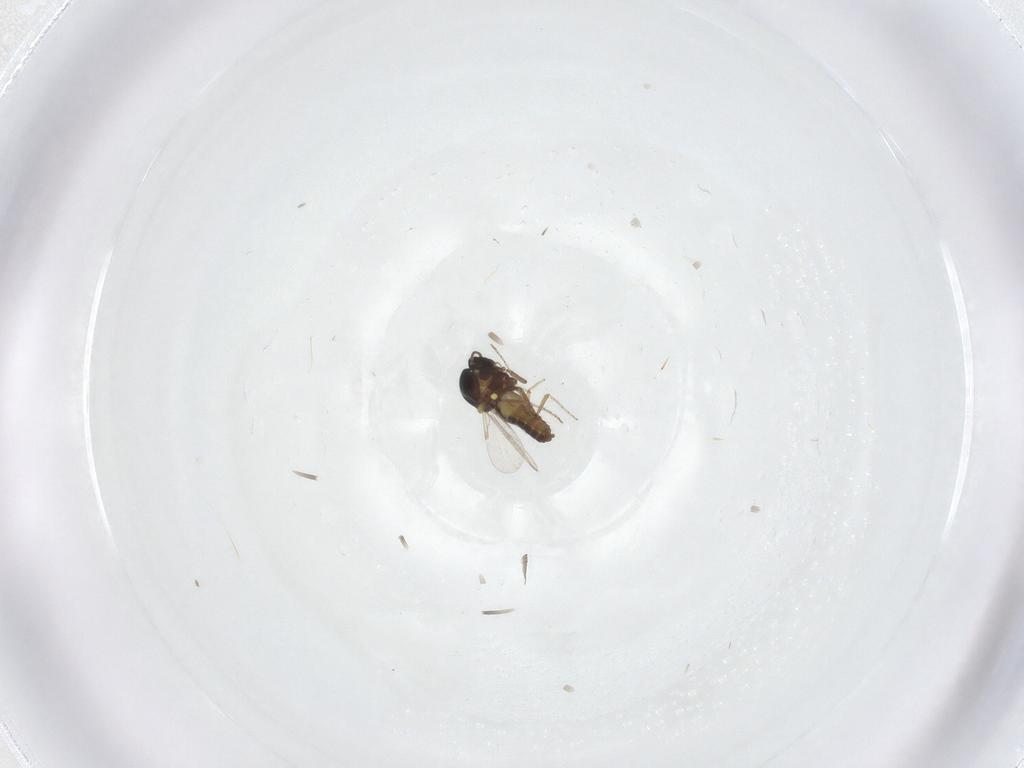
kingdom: Animalia
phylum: Arthropoda
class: Insecta
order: Diptera
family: Ceratopogonidae
